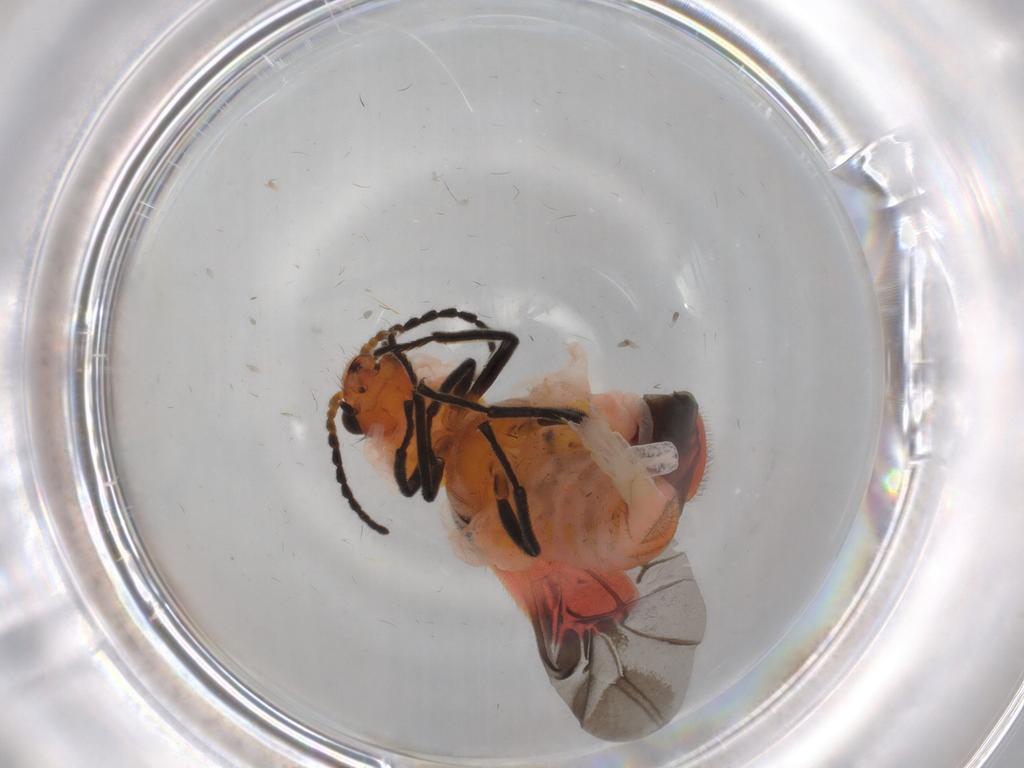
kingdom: Animalia
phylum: Arthropoda
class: Insecta
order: Coleoptera
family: Melyridae
